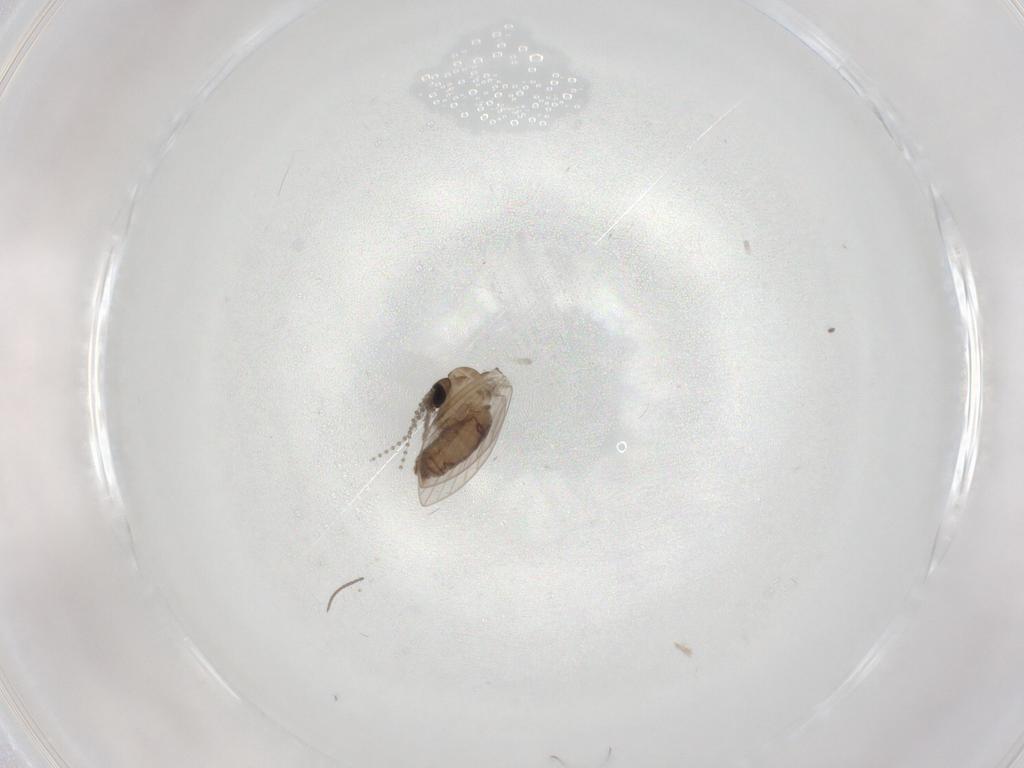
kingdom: Animalia
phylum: Arthropoda
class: Insecta
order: Diptera
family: Psychodidae
